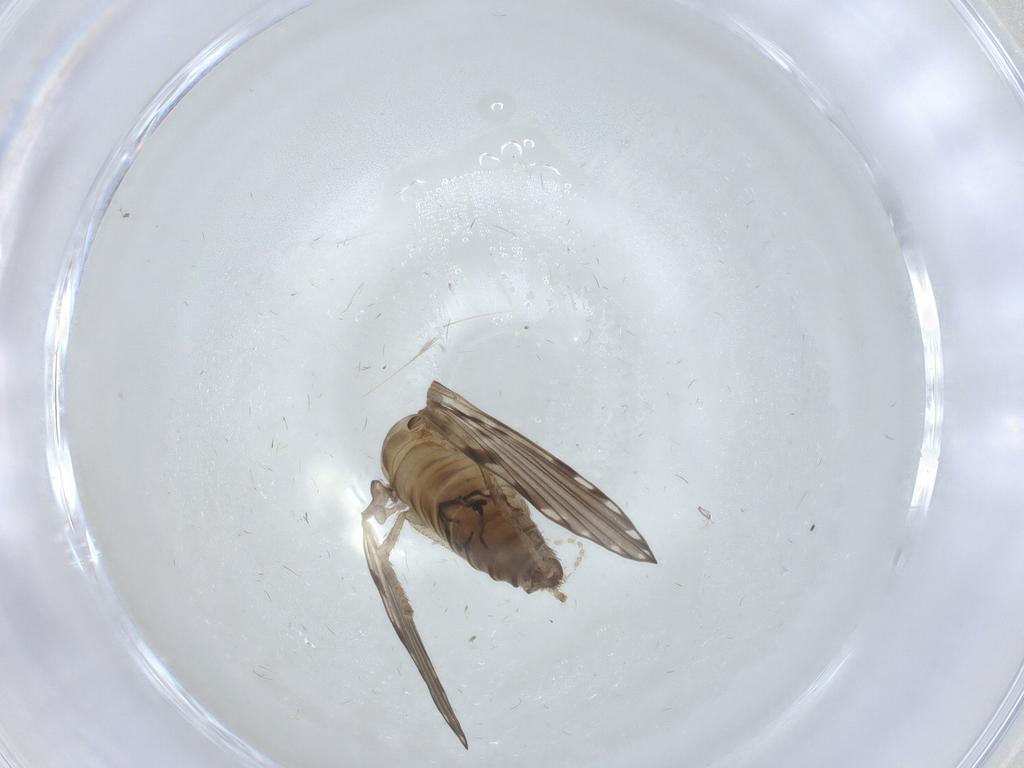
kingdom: Animalia
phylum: Arthropoda
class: Insecta
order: Diptera
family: Psychodidae
